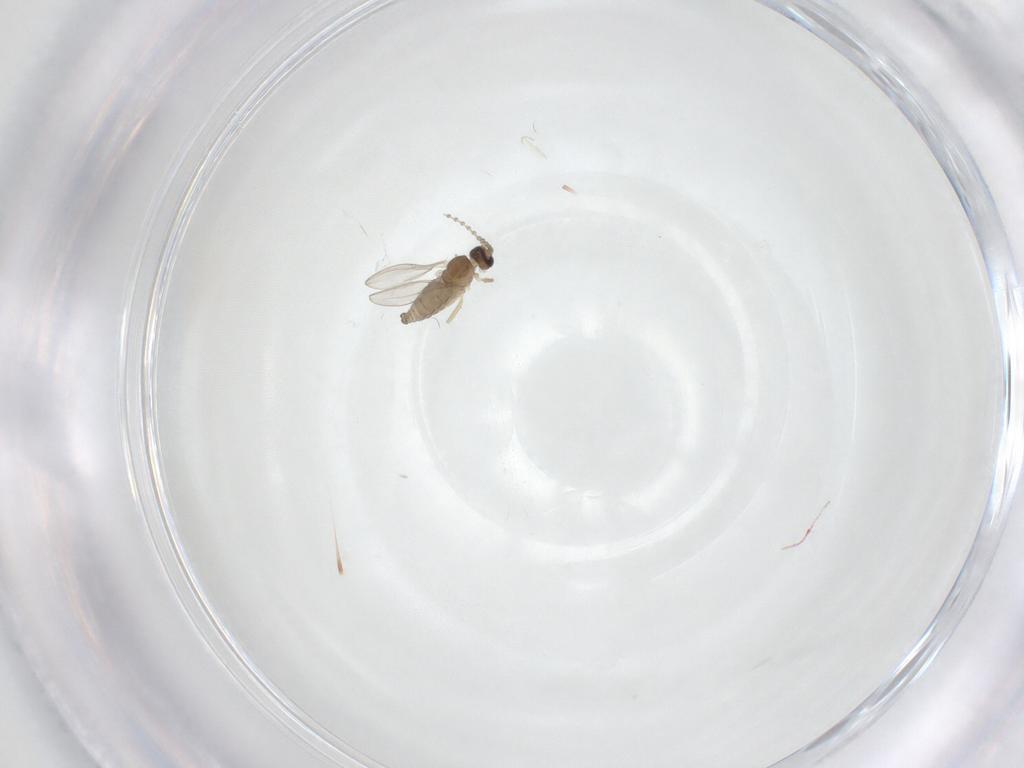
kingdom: Animalia
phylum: Arthropoda
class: Insecta
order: Diptera
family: Cecidomyiidae
